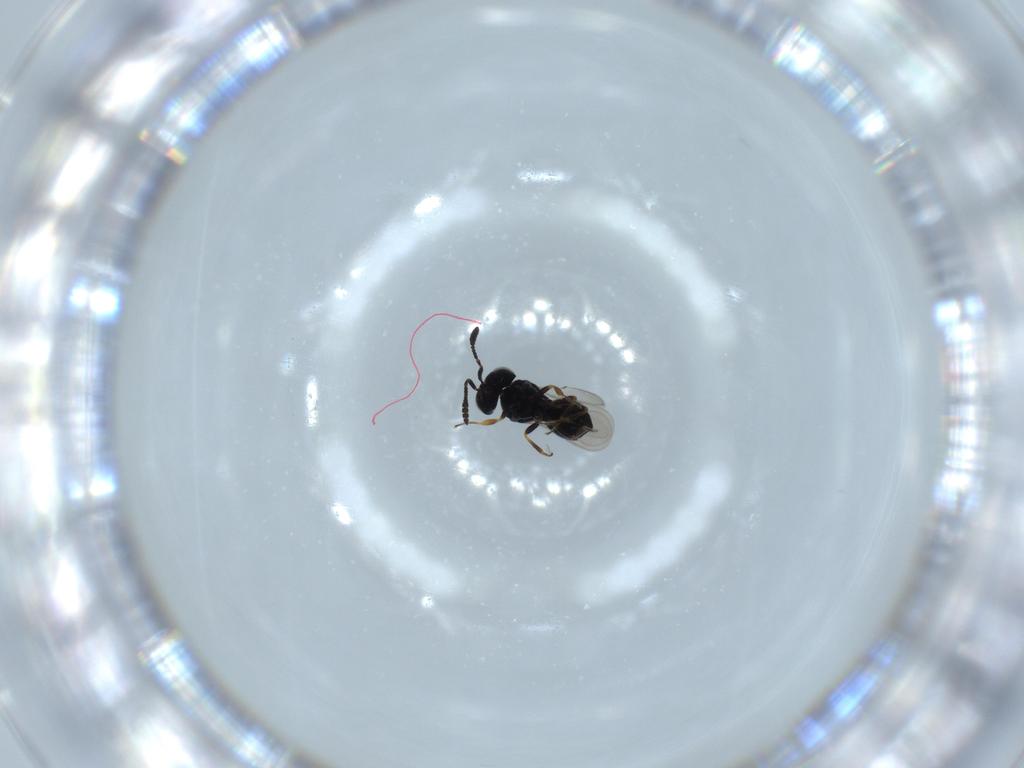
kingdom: Animalia
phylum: Arthropoda
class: Insecta
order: Hymenoptera
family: Scelionidae
